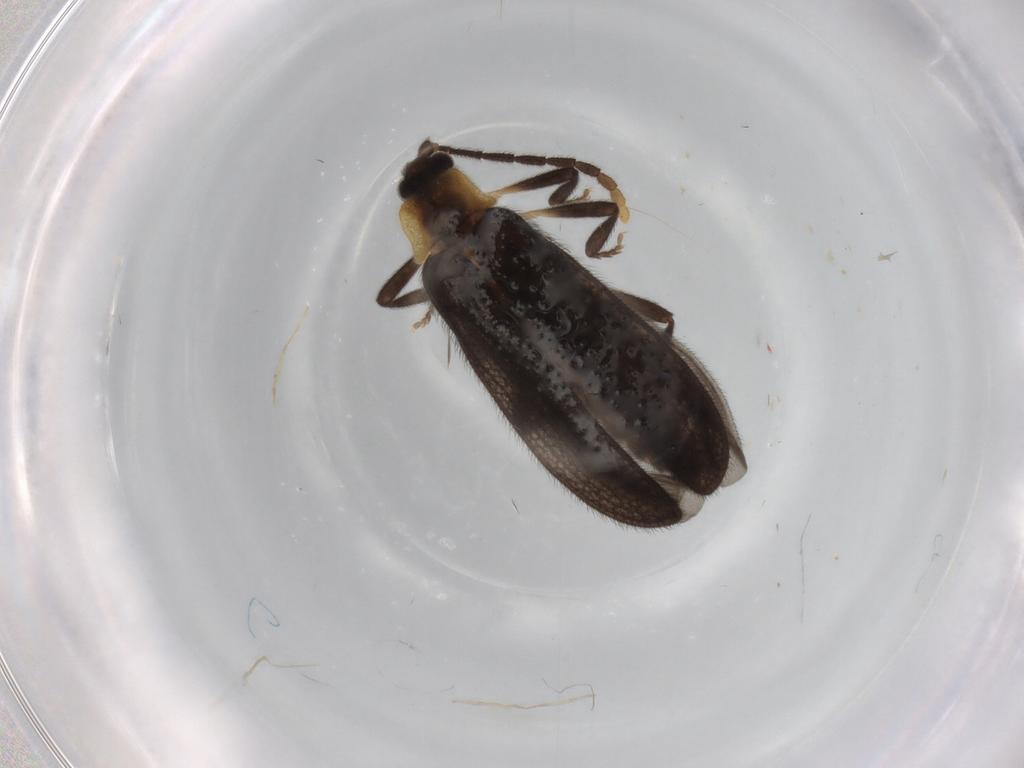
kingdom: Animalia
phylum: Arthropoda
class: Insecta
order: Coleoptera
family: Lycidae
